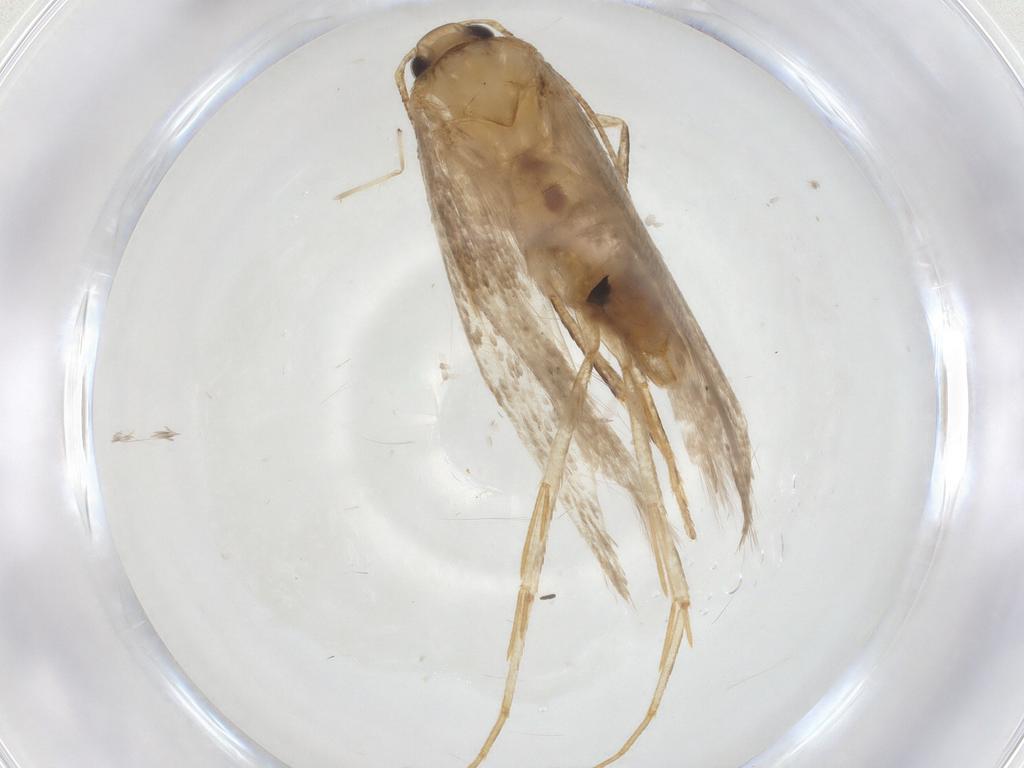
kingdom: Animalia
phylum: Arthropoda
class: Insecta
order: Lepidoptera
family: Gelechiidae
